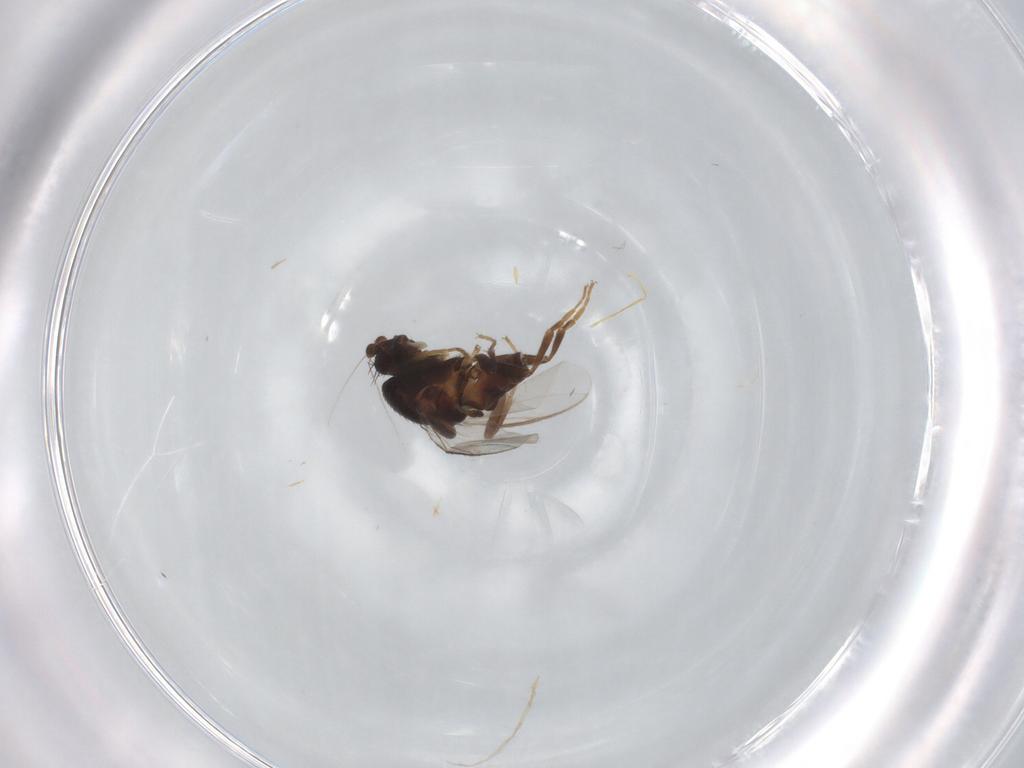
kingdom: Animalia
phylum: Arthropoda
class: Insecta
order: Diptera
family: Sphaeroceridae
